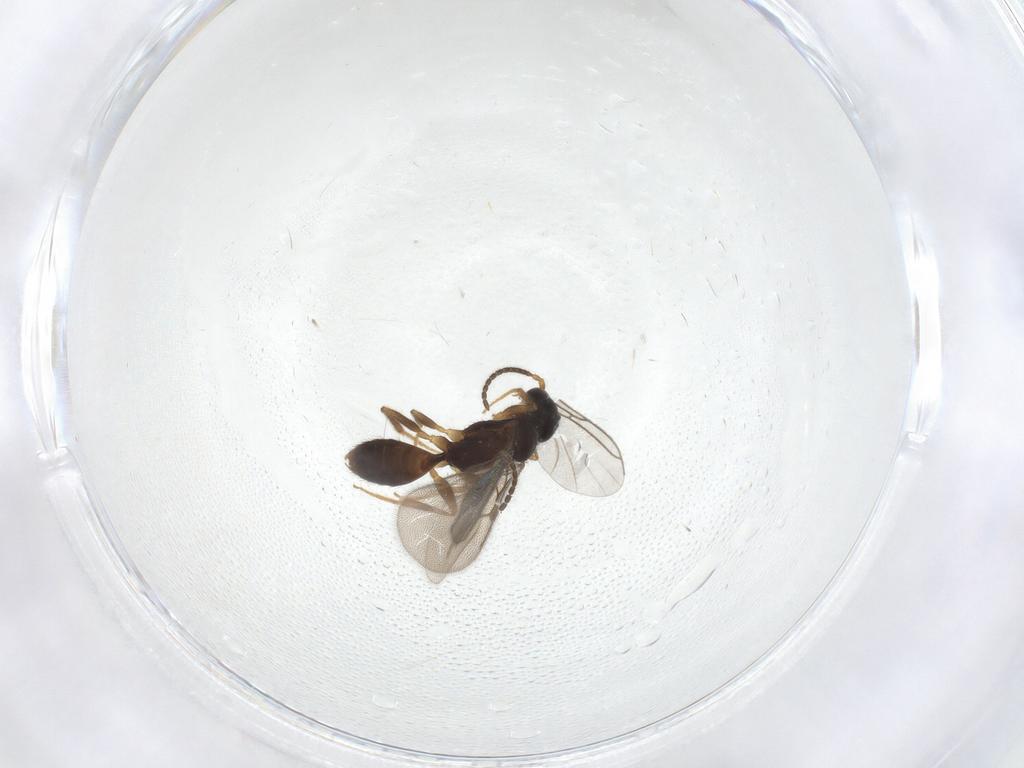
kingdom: Animalia
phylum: Arthropoda
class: Insecta
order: Hymenoptera
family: Bethylidae
